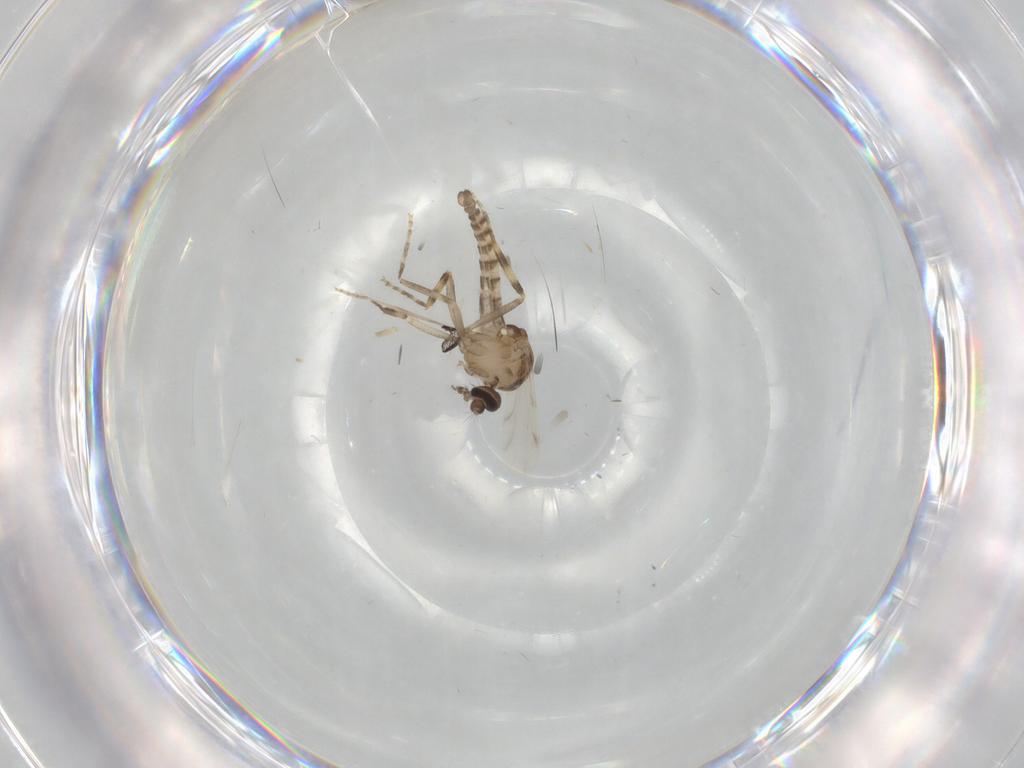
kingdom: Animalia
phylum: Arthropoda
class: Insecta
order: Diptera
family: Ceratopogonidae
